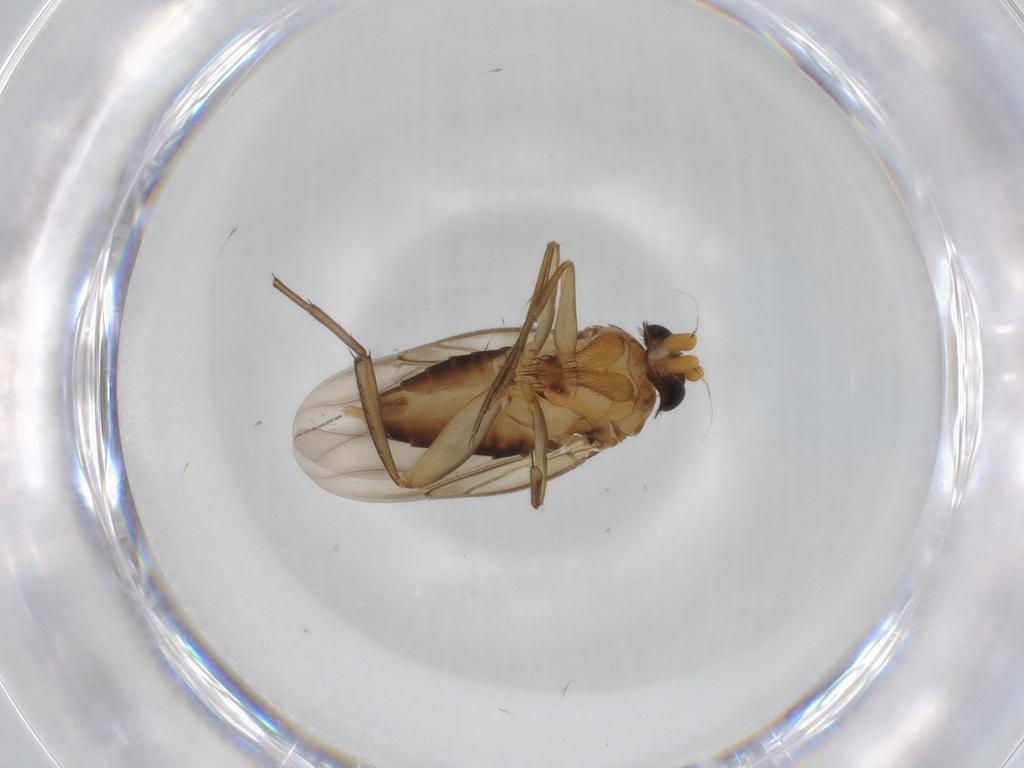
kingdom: Animalia
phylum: Arthropoda
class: Insecta
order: Diptera
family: Sciaridae
